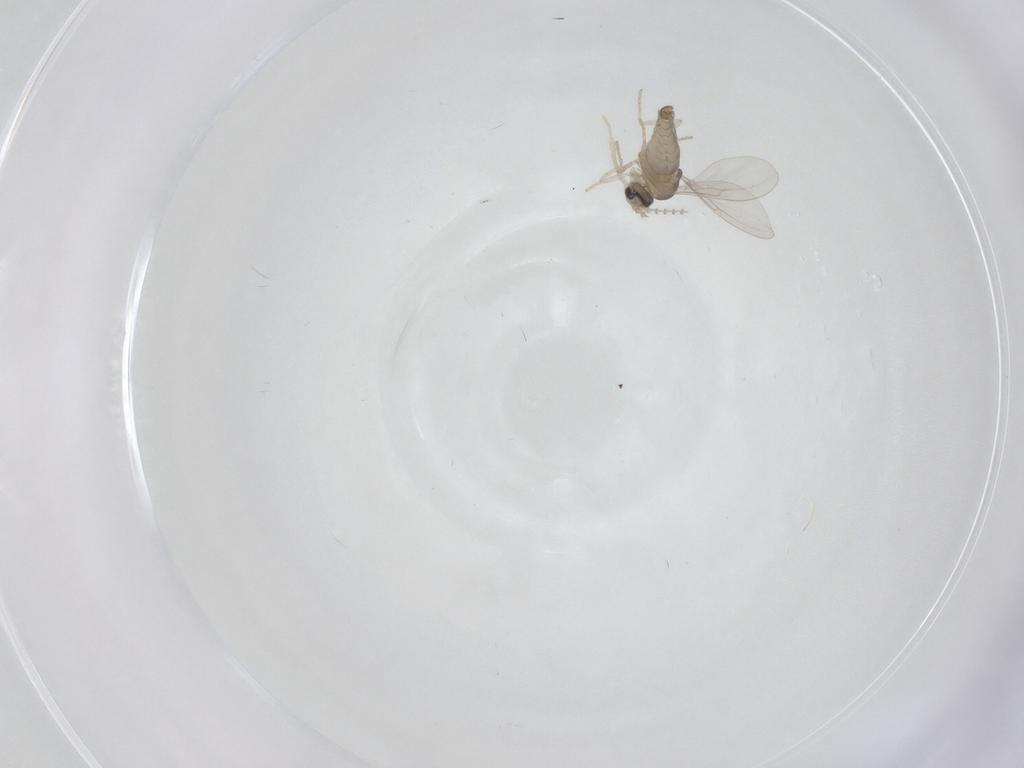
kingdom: Animalia
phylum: Arthropoda
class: Insecta
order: Diptera
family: Cecidomyiidae
